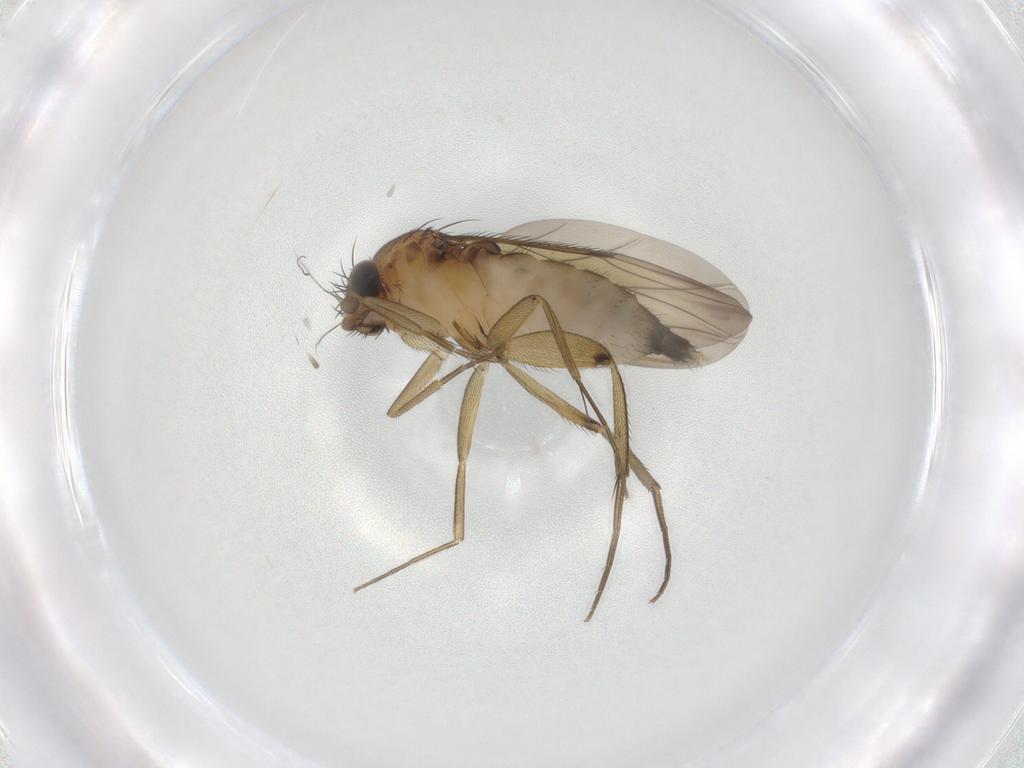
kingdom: Animalia
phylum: Arthropoda
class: Insecta
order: Diptera
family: Phoridae
